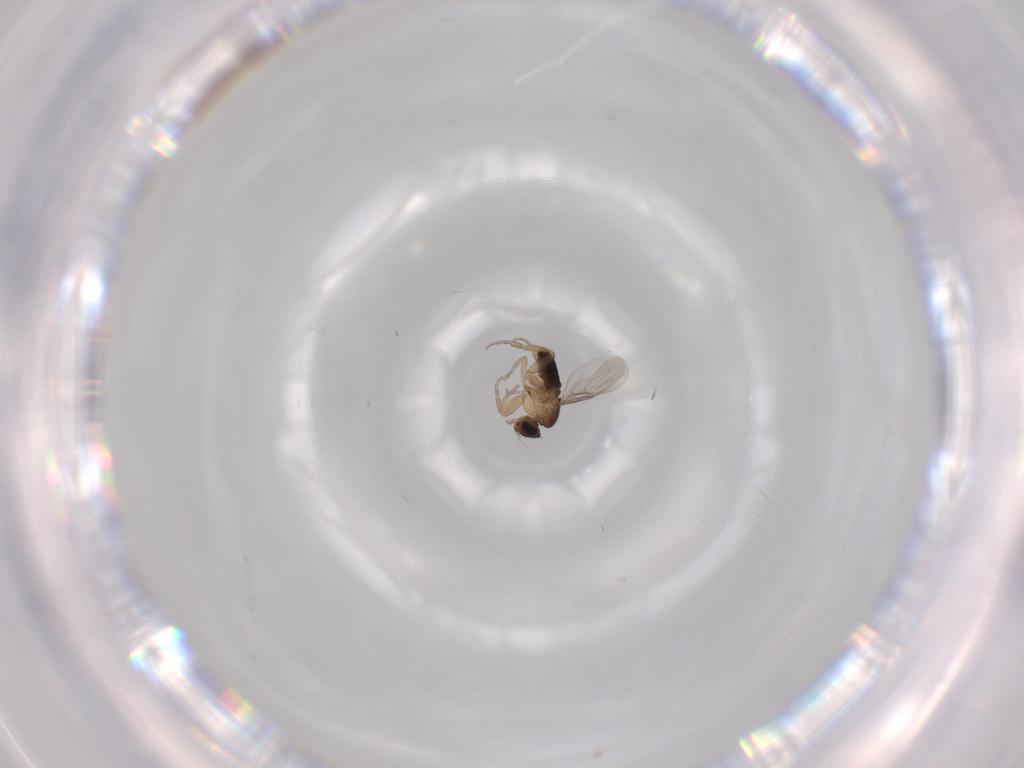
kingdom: Animalia
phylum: Arthropoda
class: Insecta
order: Diptera
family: Phoridae
